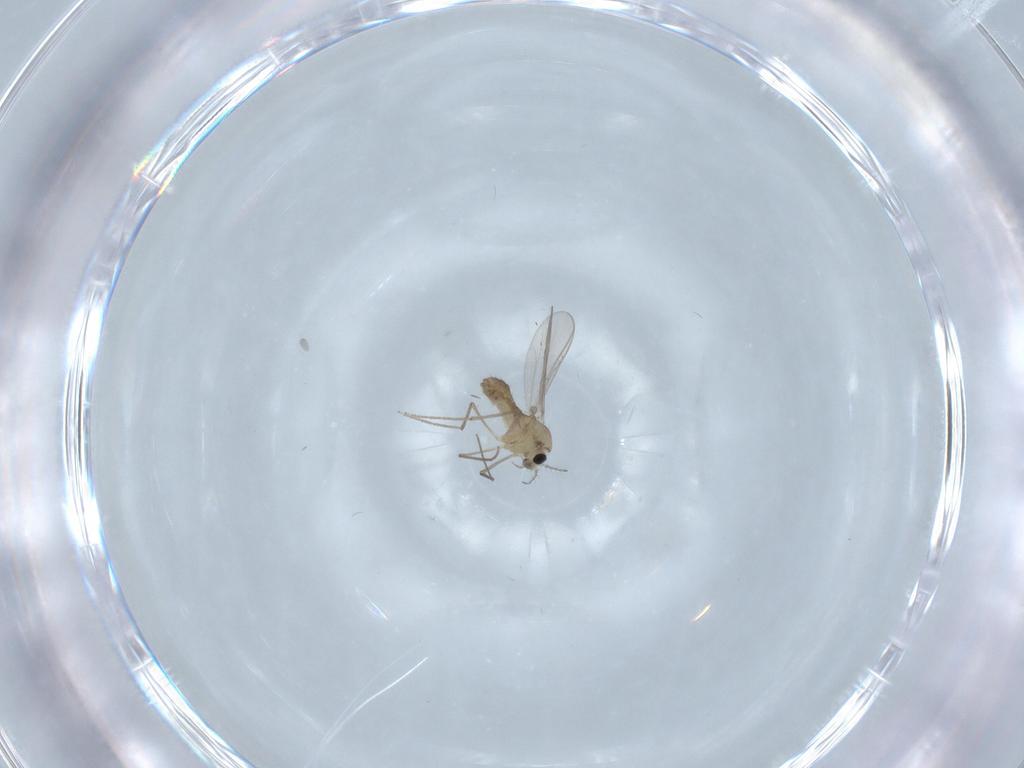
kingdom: Animalia
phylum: Arthropoda
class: Insecta
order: Diptera
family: Chironomidae
